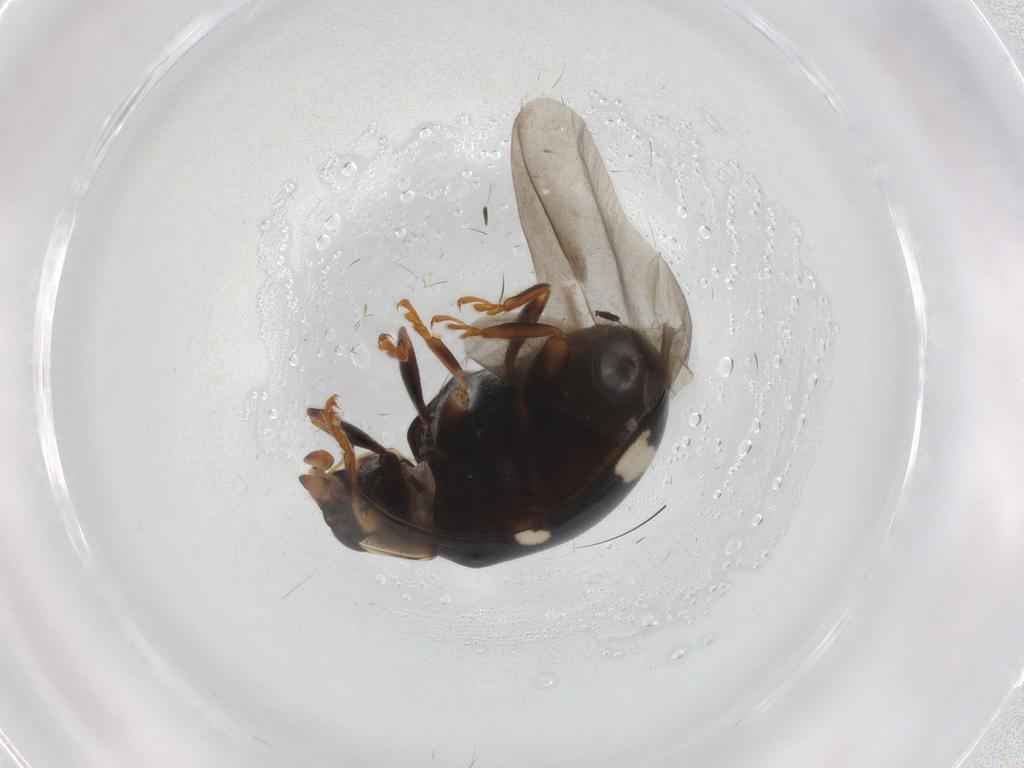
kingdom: Animalia
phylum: Arthropoda
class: Insecta
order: Coleoptera
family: Coccinellidae
